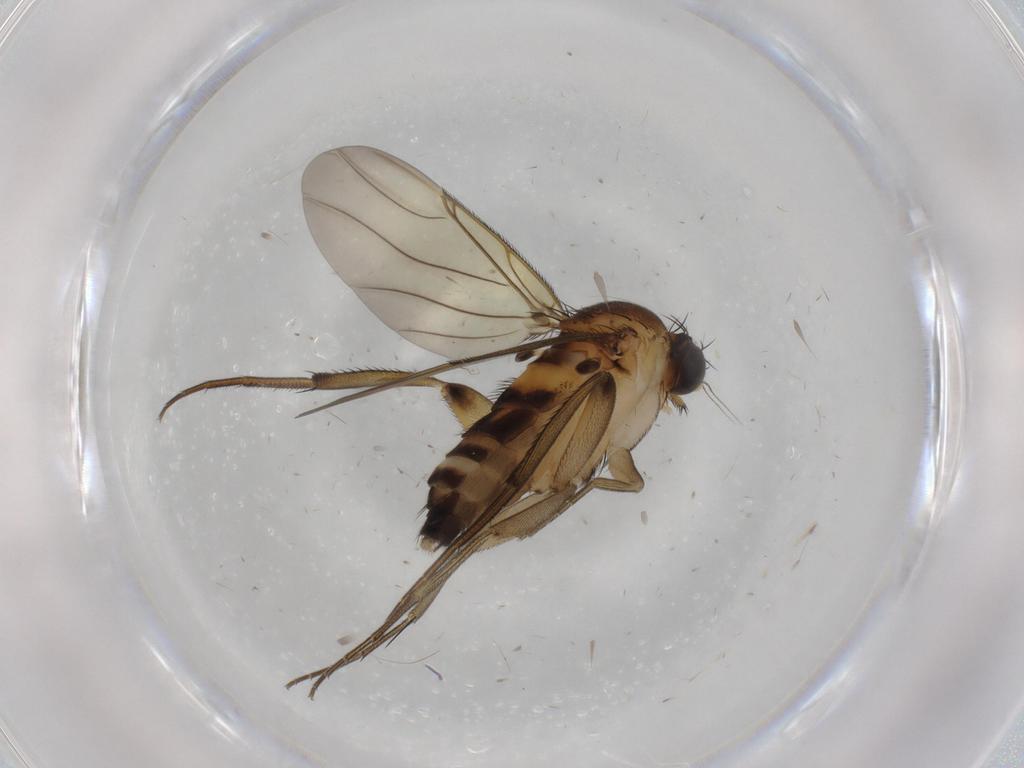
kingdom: Animalia
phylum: Arthropoda
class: Insecta
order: Diptera
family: Phoridae
